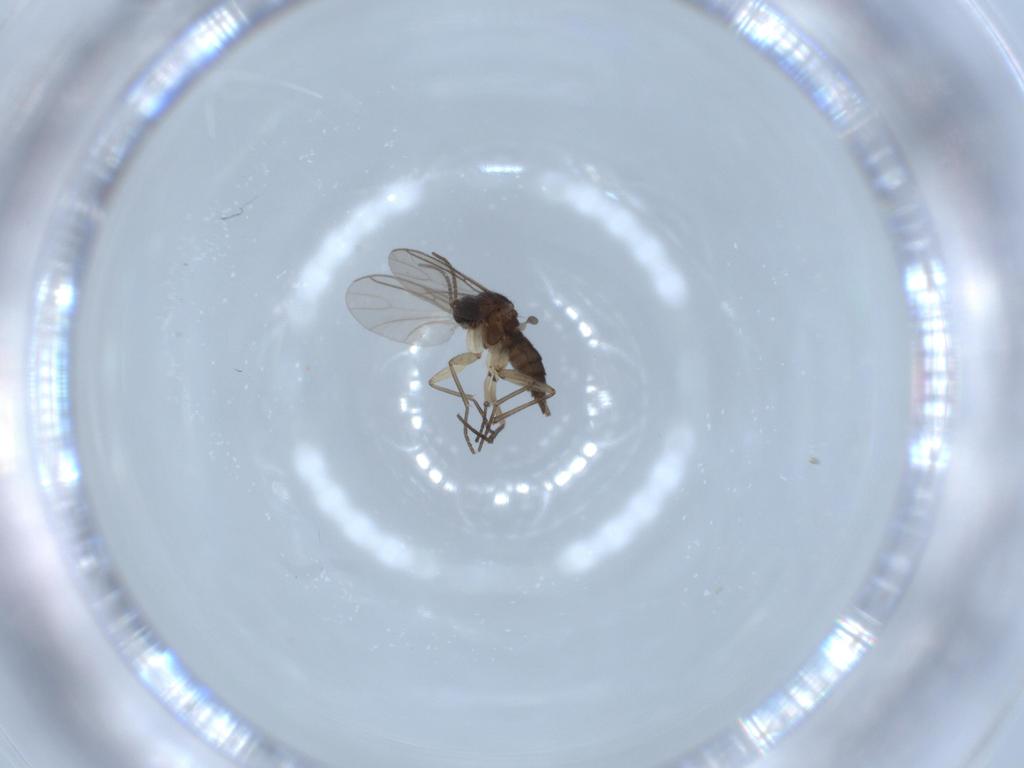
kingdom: Animalia
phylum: Arthropoda
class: Insecta
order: Diptera
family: Sciaridae
